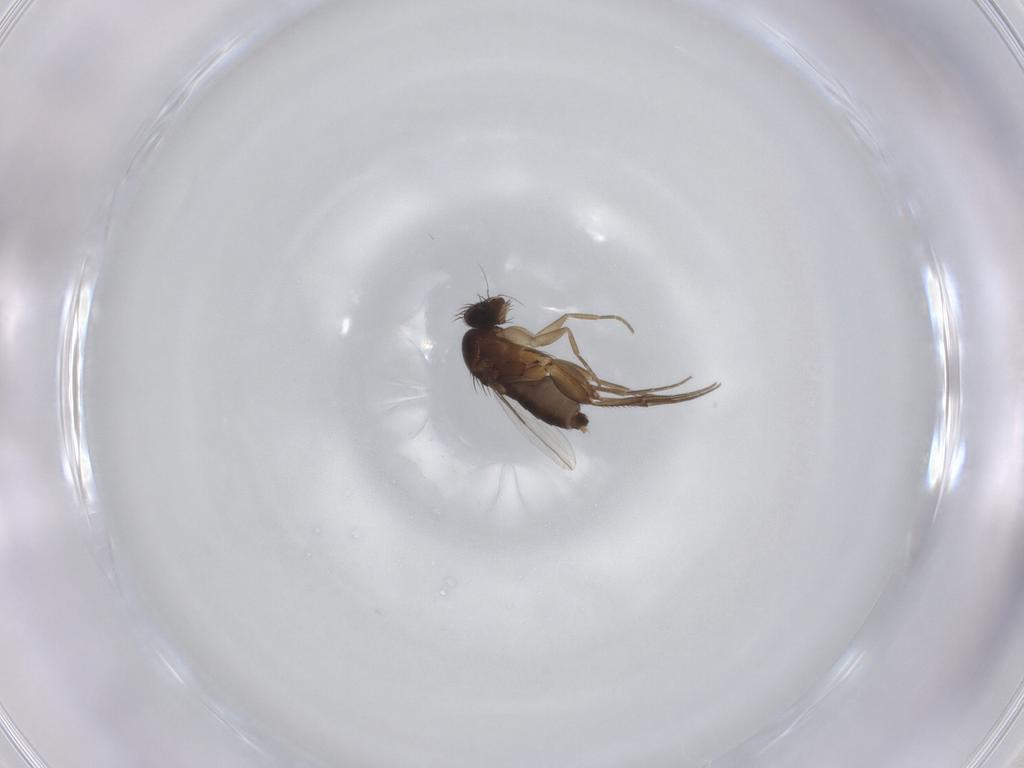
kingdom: Animalia
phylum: Arthropoda
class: Insecta
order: Diptera
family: Phoridae
